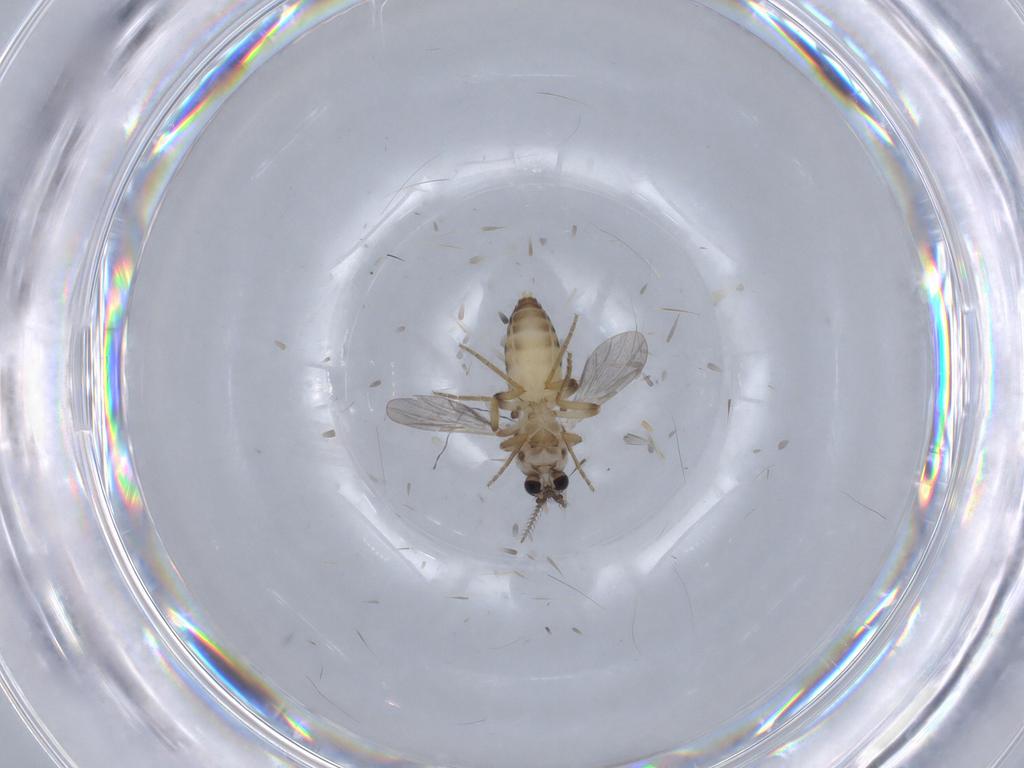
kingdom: Animalia
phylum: Arthropoda
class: Insecta
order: Diptera
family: Ceratopogonidae
